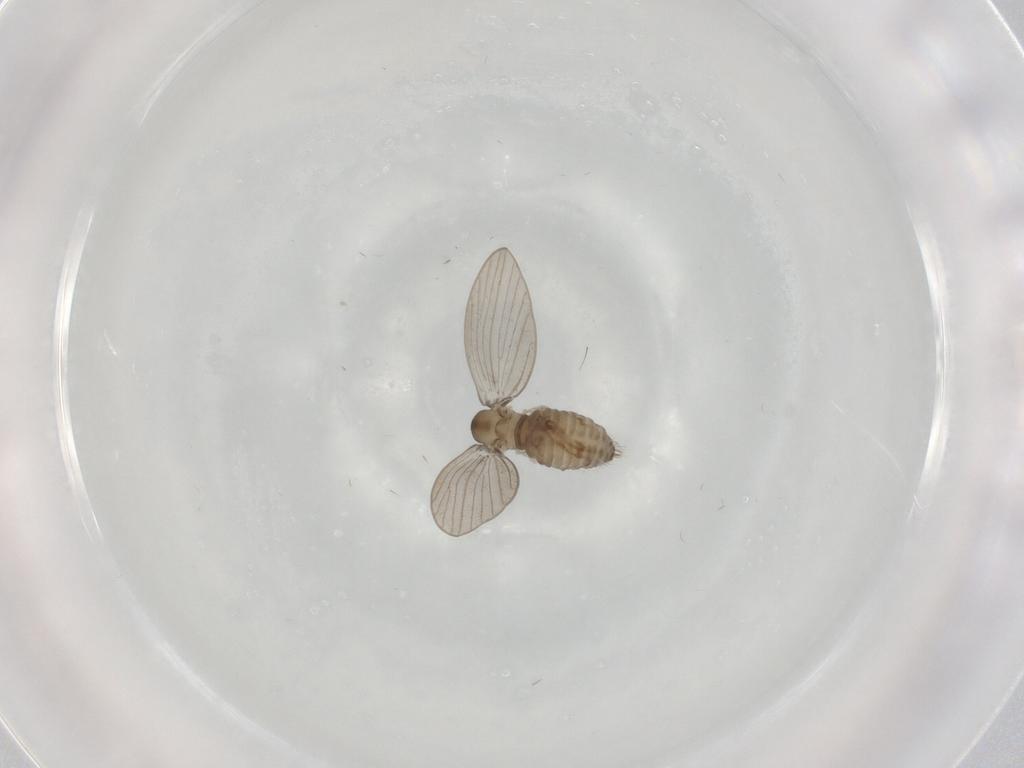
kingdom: Animalia
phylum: Arthropoda
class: Insecta
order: Diptera
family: Psychodidae
